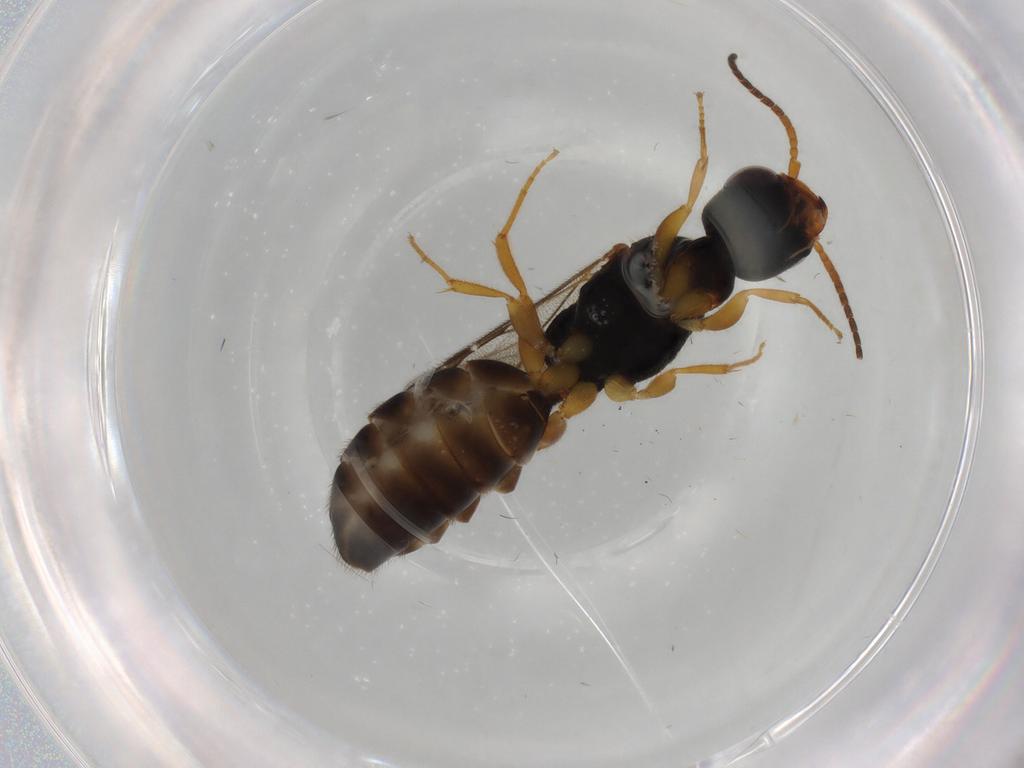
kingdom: Animalia
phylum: Arthropoda
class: Insecta
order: Hymenoptera
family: Bethylidae
